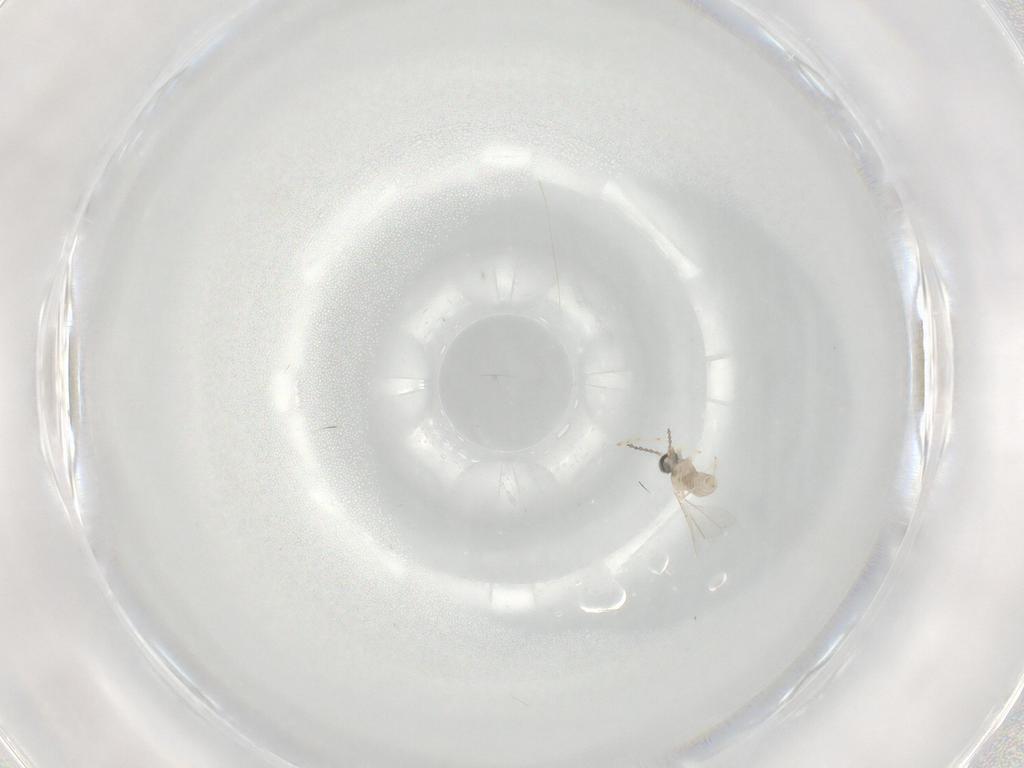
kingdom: Animalia
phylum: Arthropoda
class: Insecta
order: Diptera
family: Cecidomyiidae
